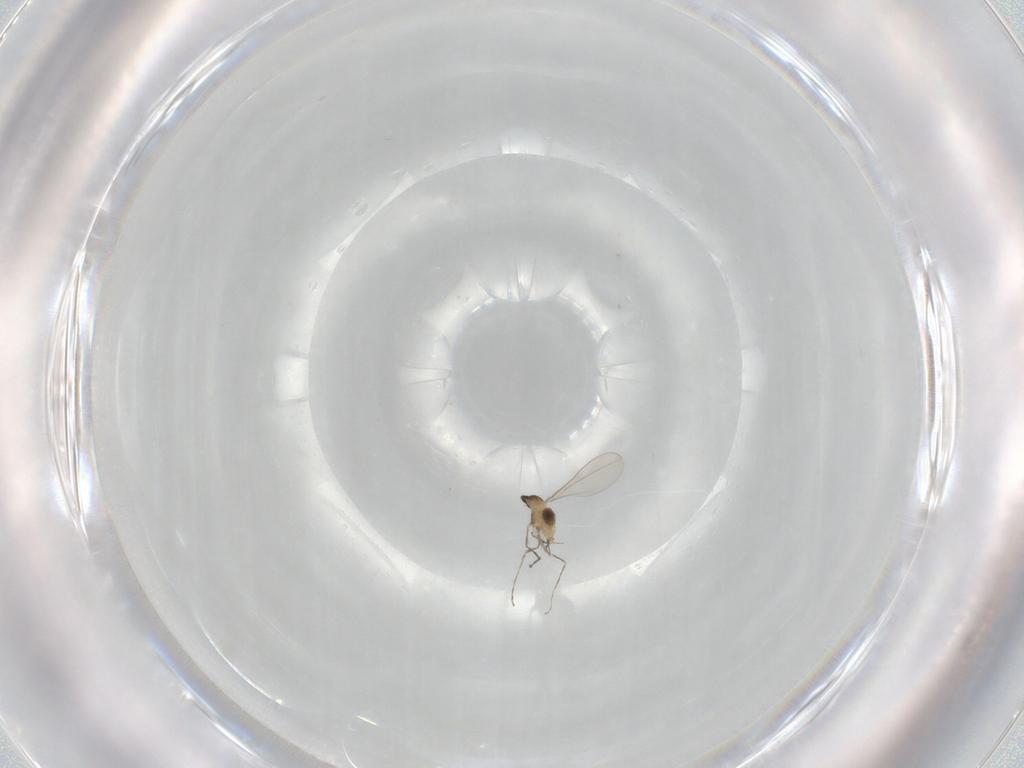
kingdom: Animalia
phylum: Arthropoda
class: Insecta
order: Diptera
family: Cecidomyiidae
